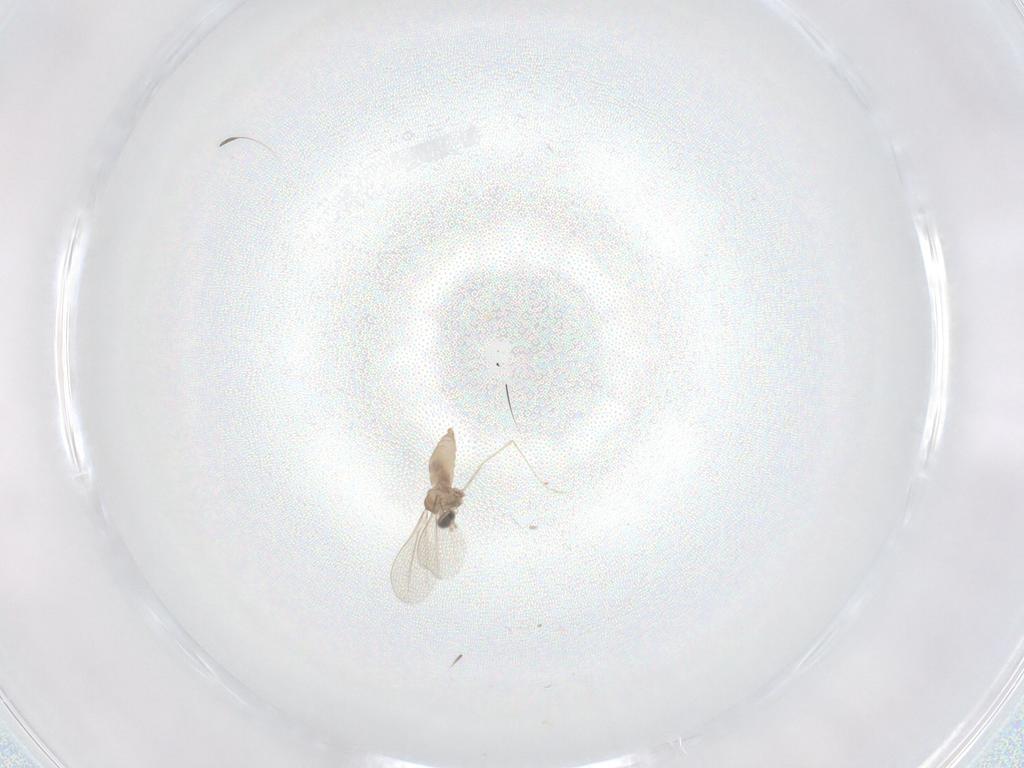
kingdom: Animalia
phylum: Arthropoda
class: Insecta
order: Diptera
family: Cecidomyiidae
